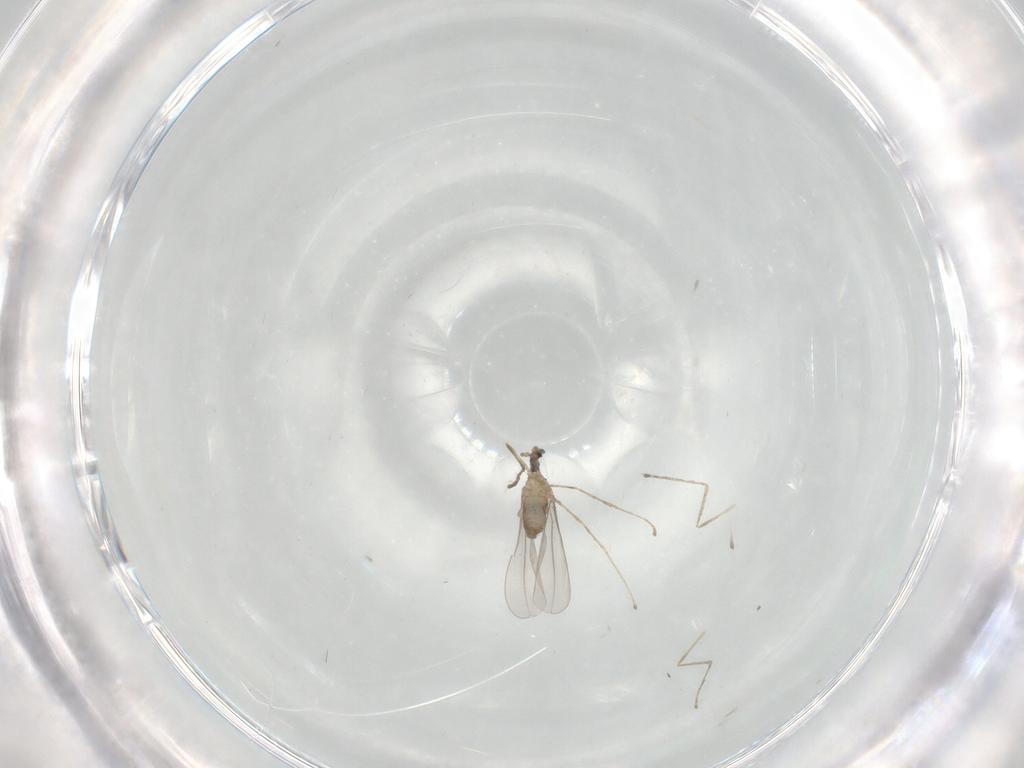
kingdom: Animalia
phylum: Arthropoda
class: Insecta
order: Diptera
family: Cecidomyiidae
